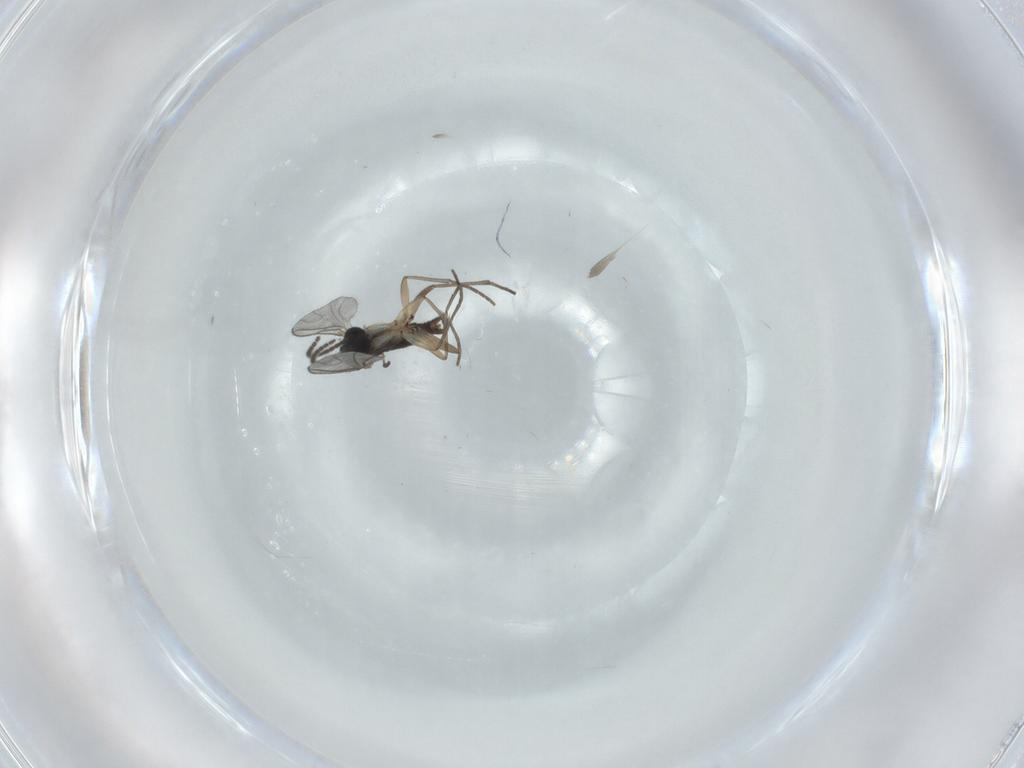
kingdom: Animalia
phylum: Arthropoda
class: Insecta
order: Diptera
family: Sciaridae
